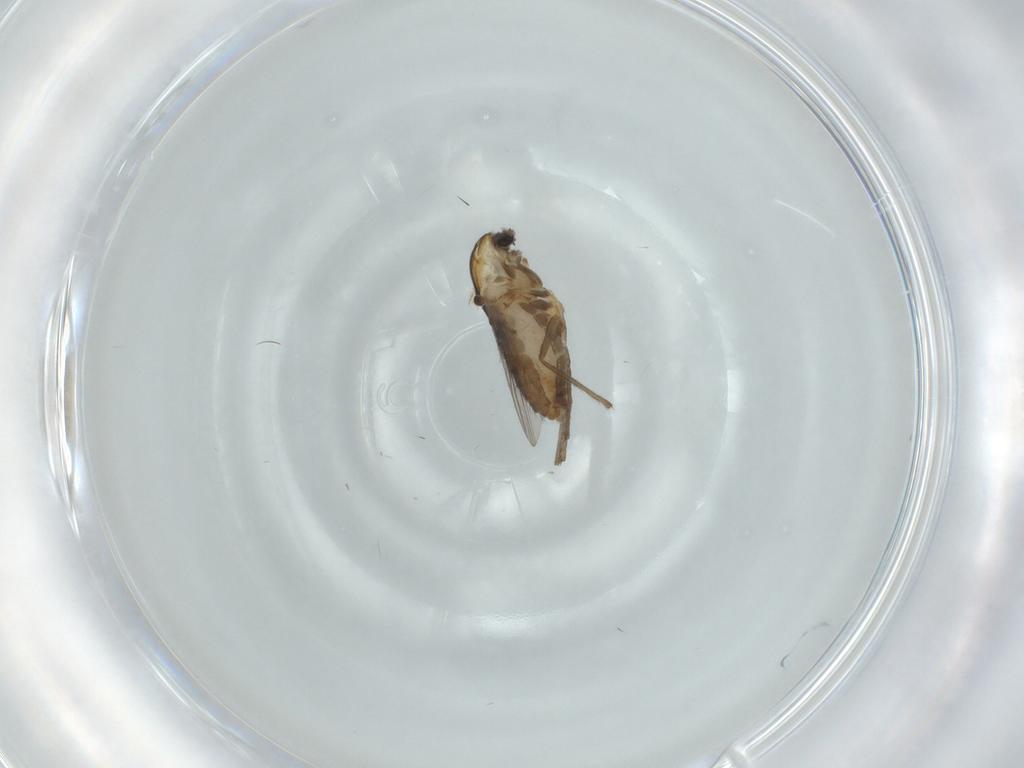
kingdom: Animalia
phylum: Arthropoda
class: Insecta
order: Diptera
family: Chironomidae
